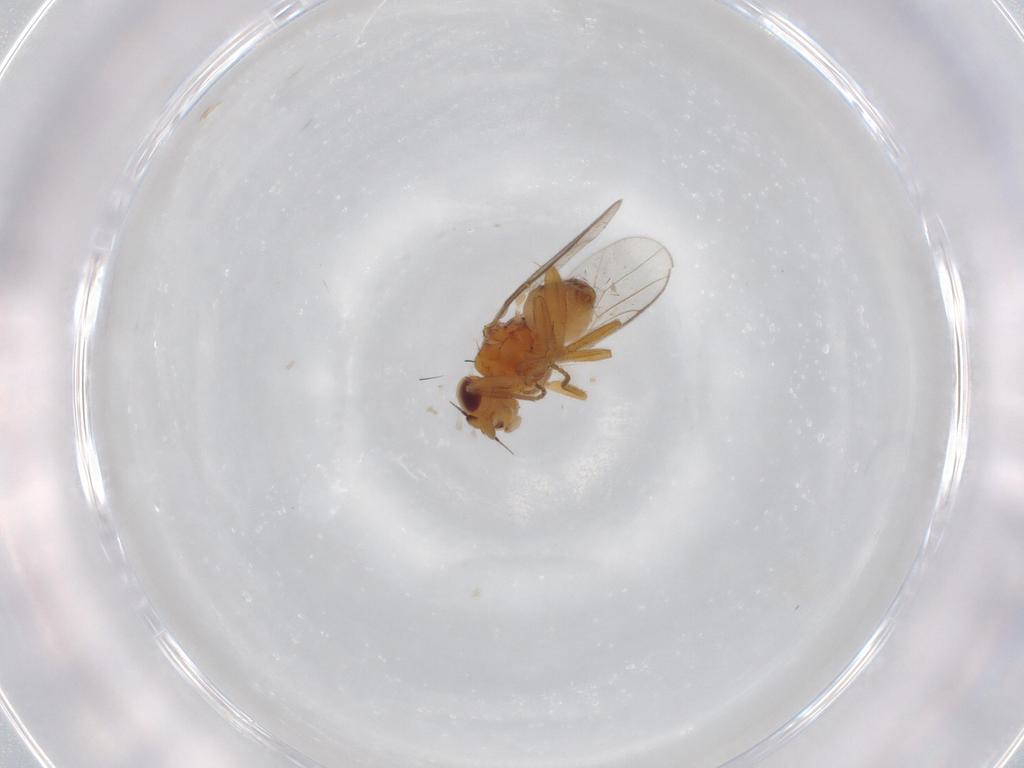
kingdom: Animalia
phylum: Arthropoda
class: Insecta
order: Diptera
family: Chloropidae
